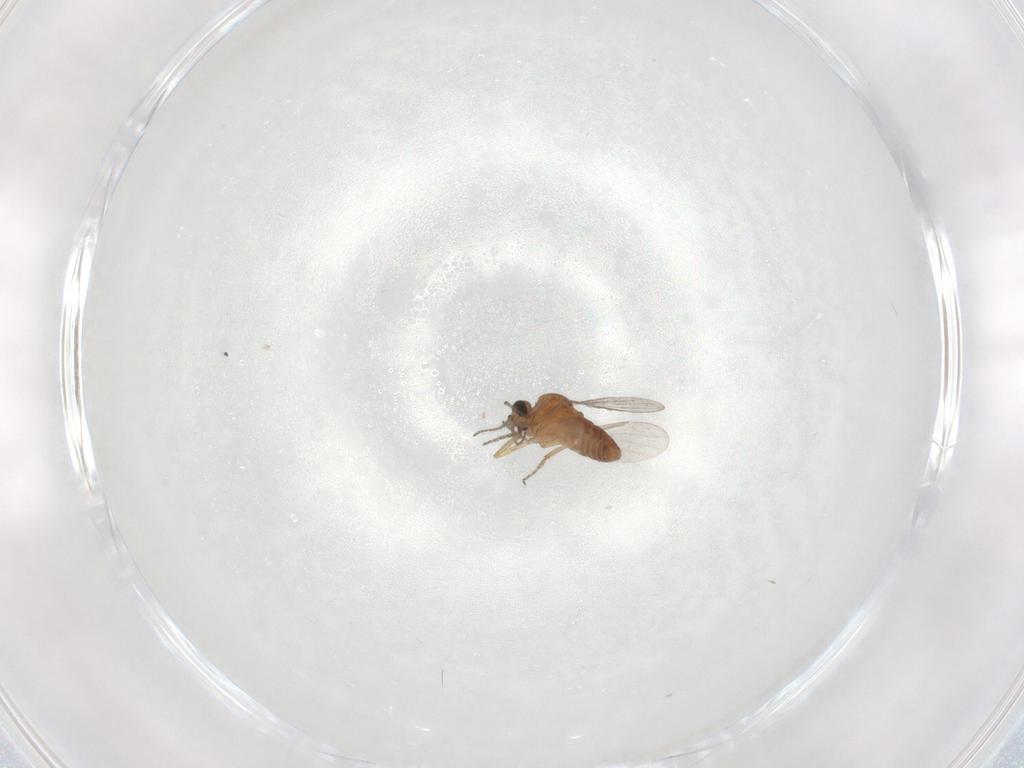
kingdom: Animalia
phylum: Arthropoda
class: Insecta
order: Diptera
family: Ceratopogonidae
